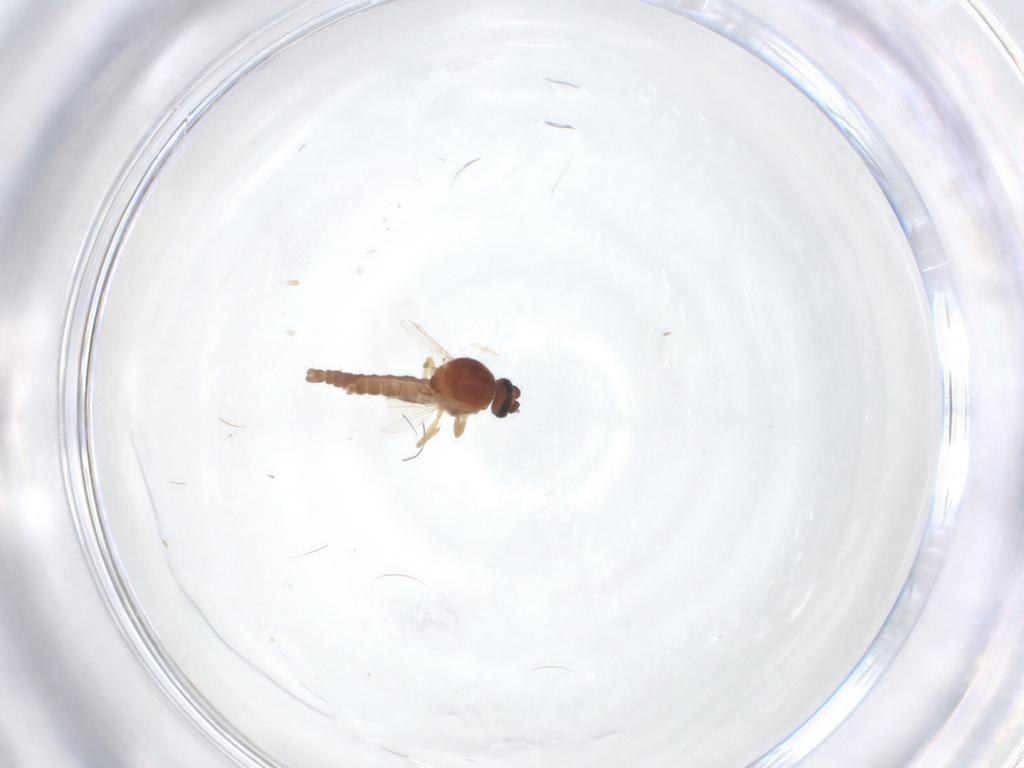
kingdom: Animalia
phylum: Arthropoda
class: Insecta
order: Diptera
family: Ceratopogonidae
